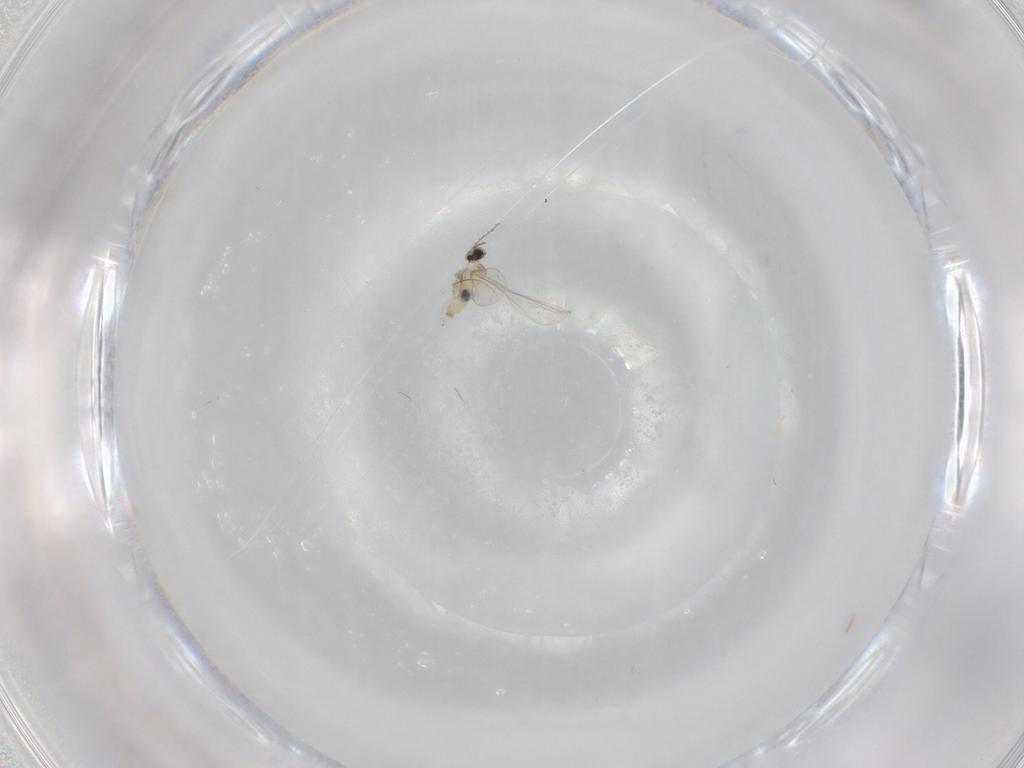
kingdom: Animalia
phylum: Arthropoda
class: Insecta
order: Diptera
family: Cecidomyiidae
